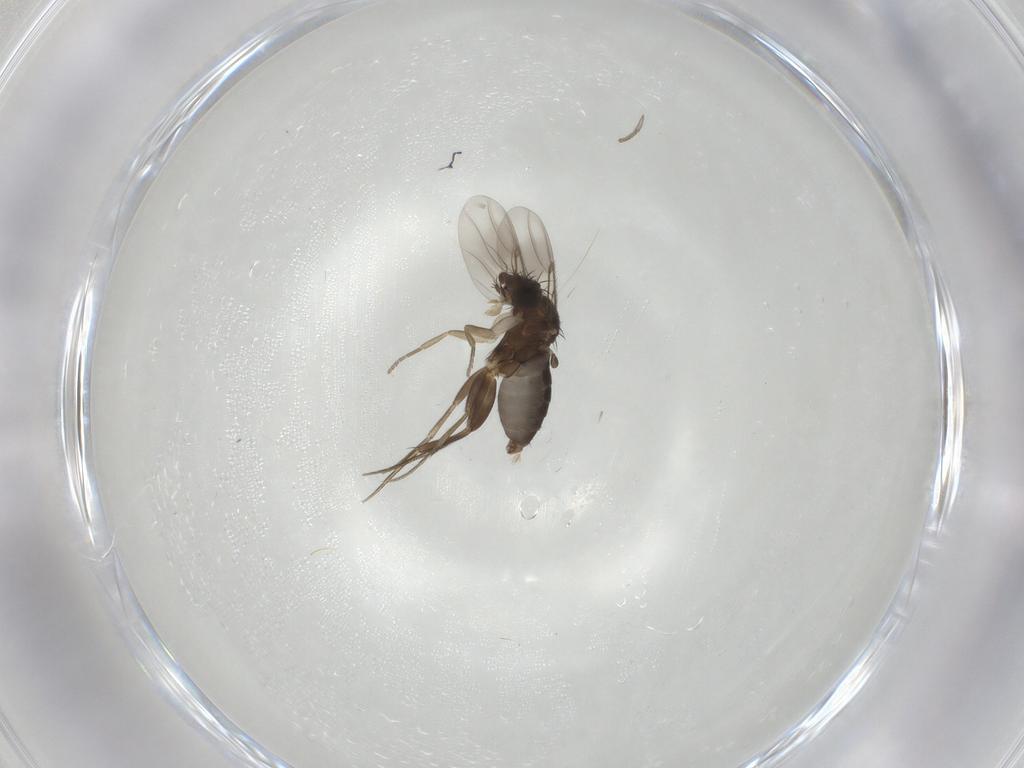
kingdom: Animalia
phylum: Arthropoda
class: Insecta
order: Diptera
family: Phoridae
